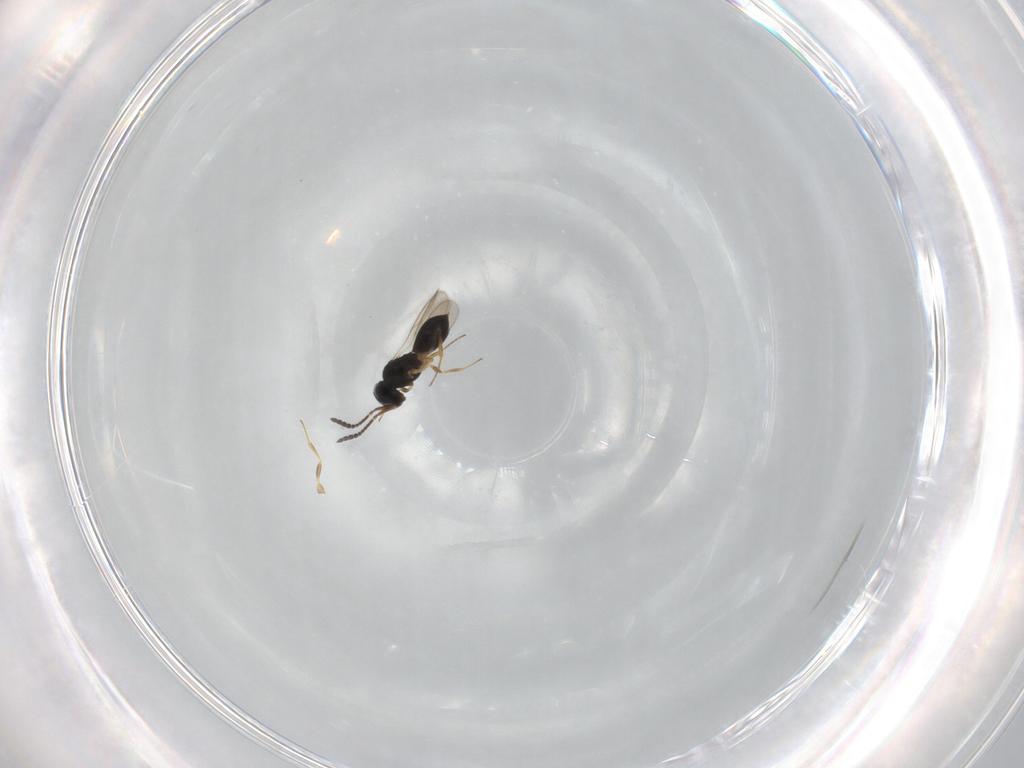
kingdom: Animalia
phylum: Arthropoda
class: Insecta
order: Hymenoptera
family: Scelionidae
